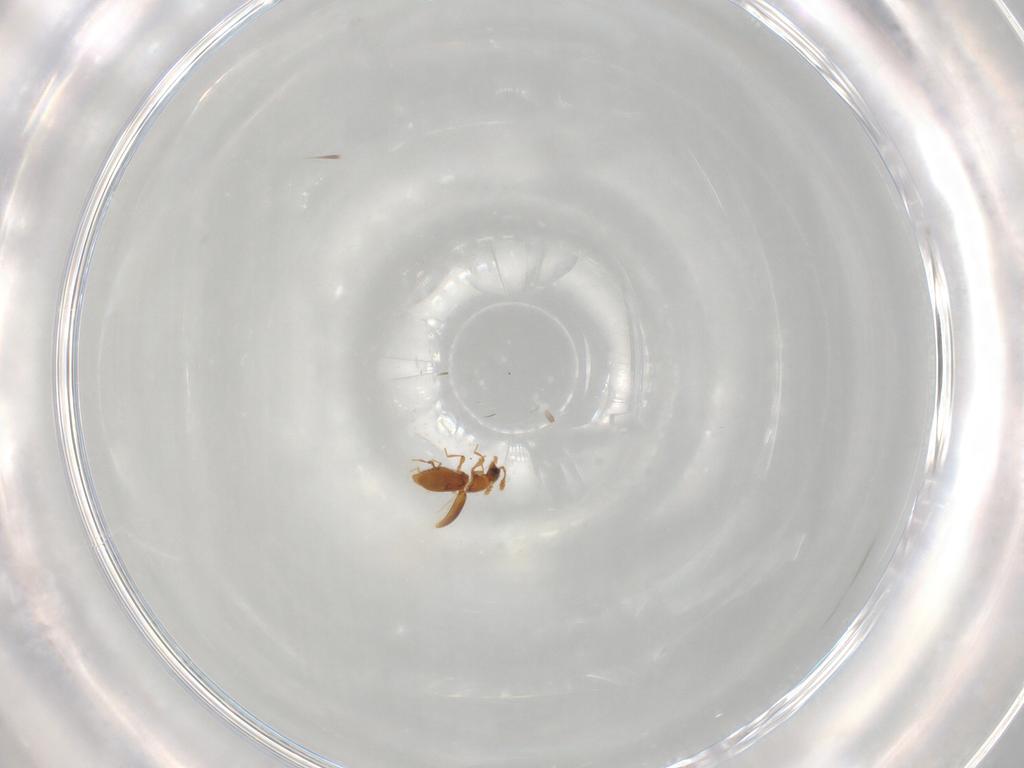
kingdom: Animalia
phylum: Arthropoda
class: Insecta
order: Coleoptera
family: Staphylinidae
